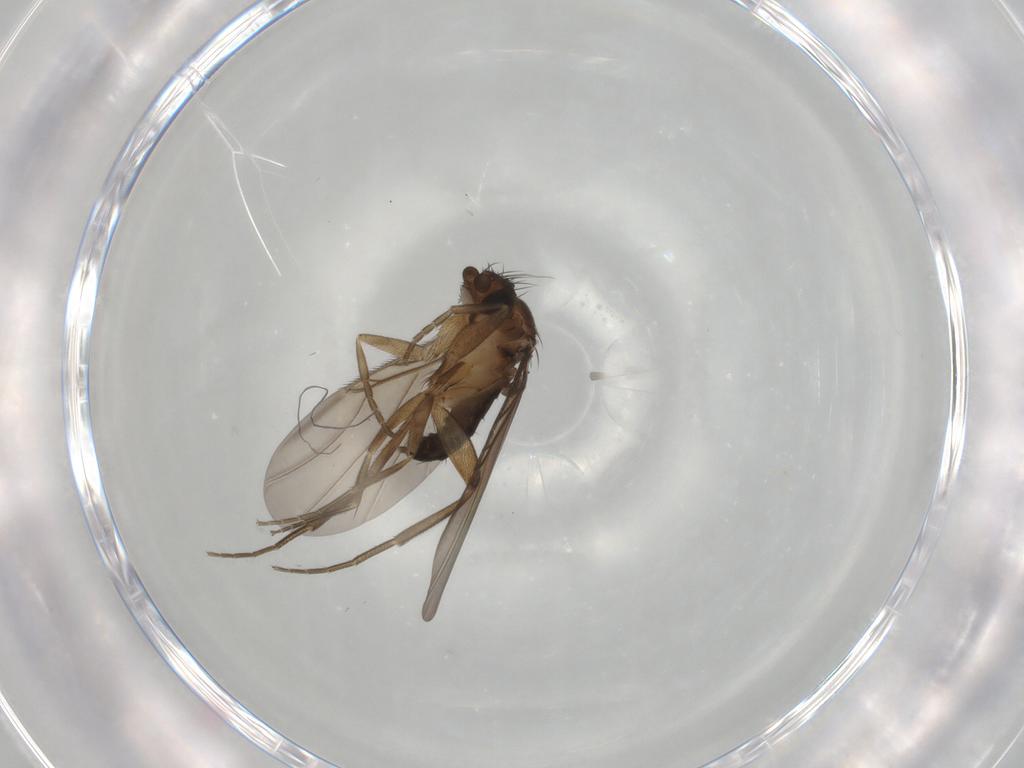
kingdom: Animalia
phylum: Arthropoda
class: Insecta
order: Diptera
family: Phoridae
